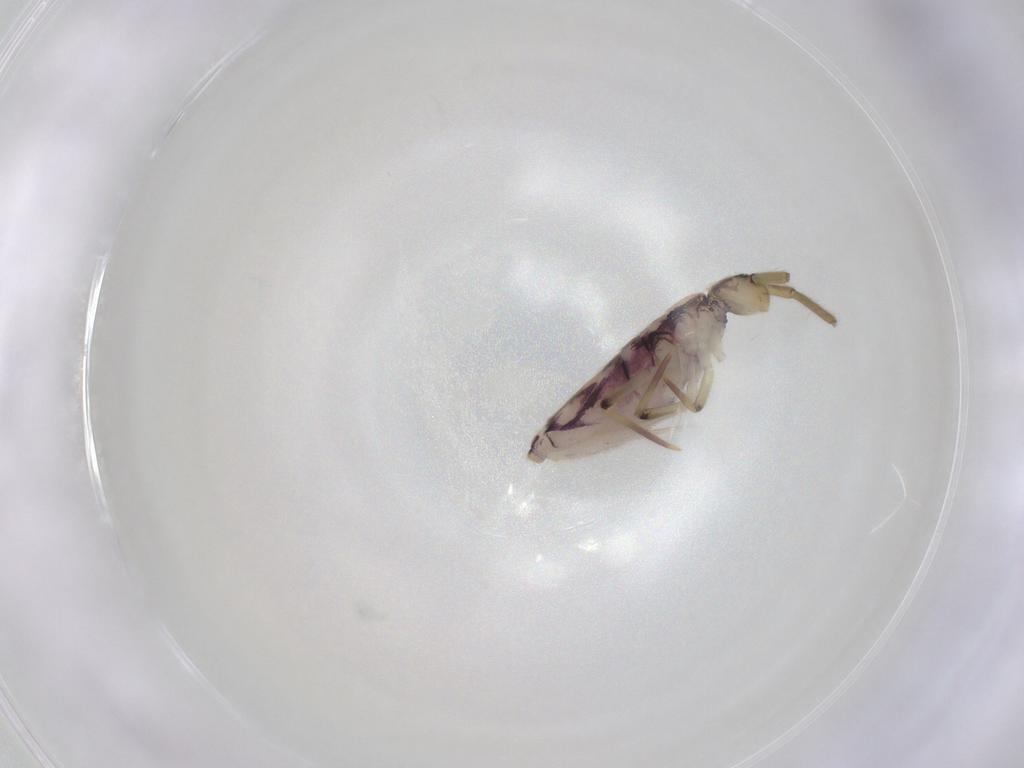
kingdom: Animalia
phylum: Arthropoda
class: Collembola
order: Entomobryomorpha
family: Entomobryidae
